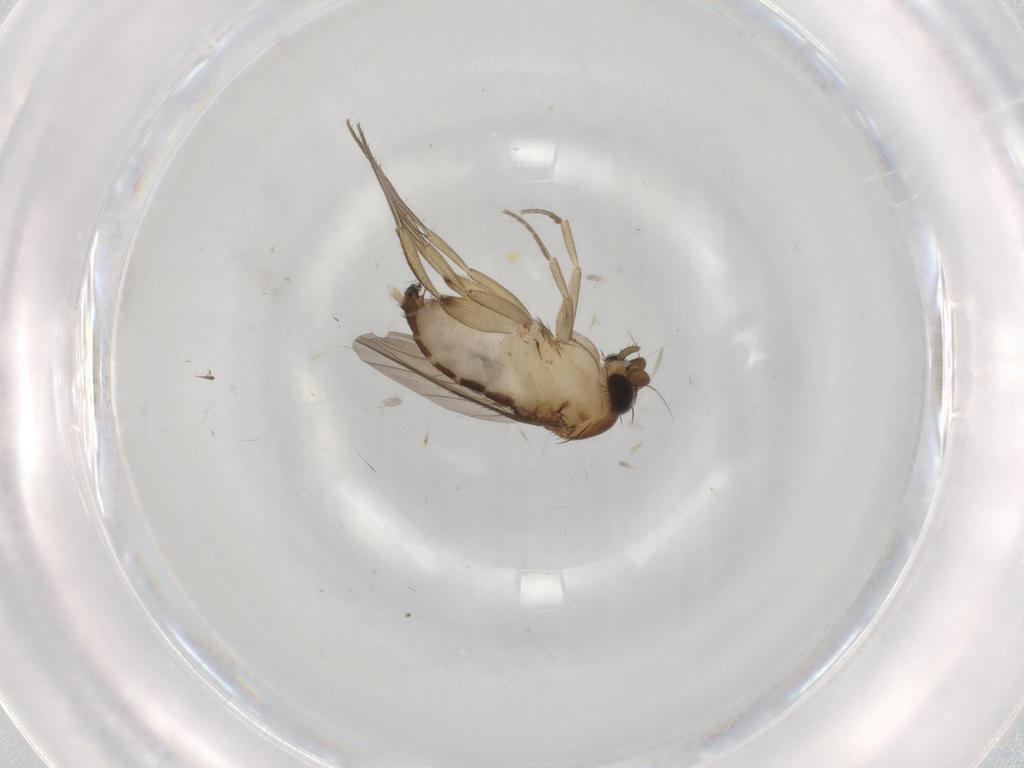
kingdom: Animalia
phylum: Arthropoda
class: Insecta
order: Diptera
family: Phoridae
